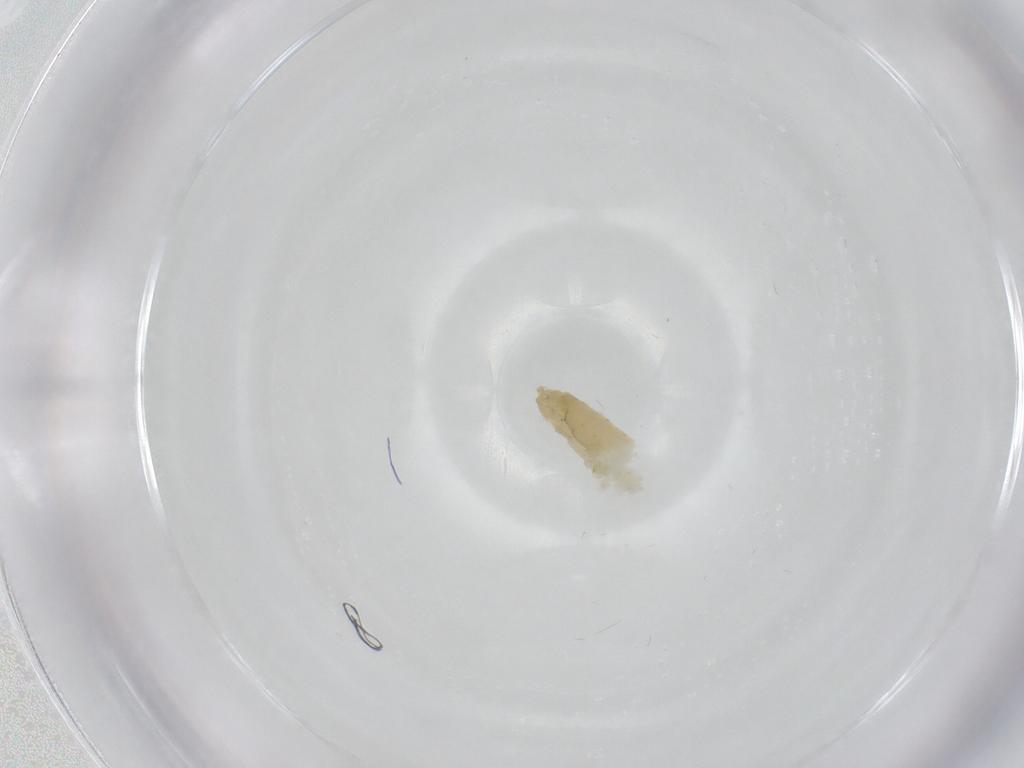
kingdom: Animalia
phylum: Arthropoda
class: Insecta
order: Diptera
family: Chironomidae
